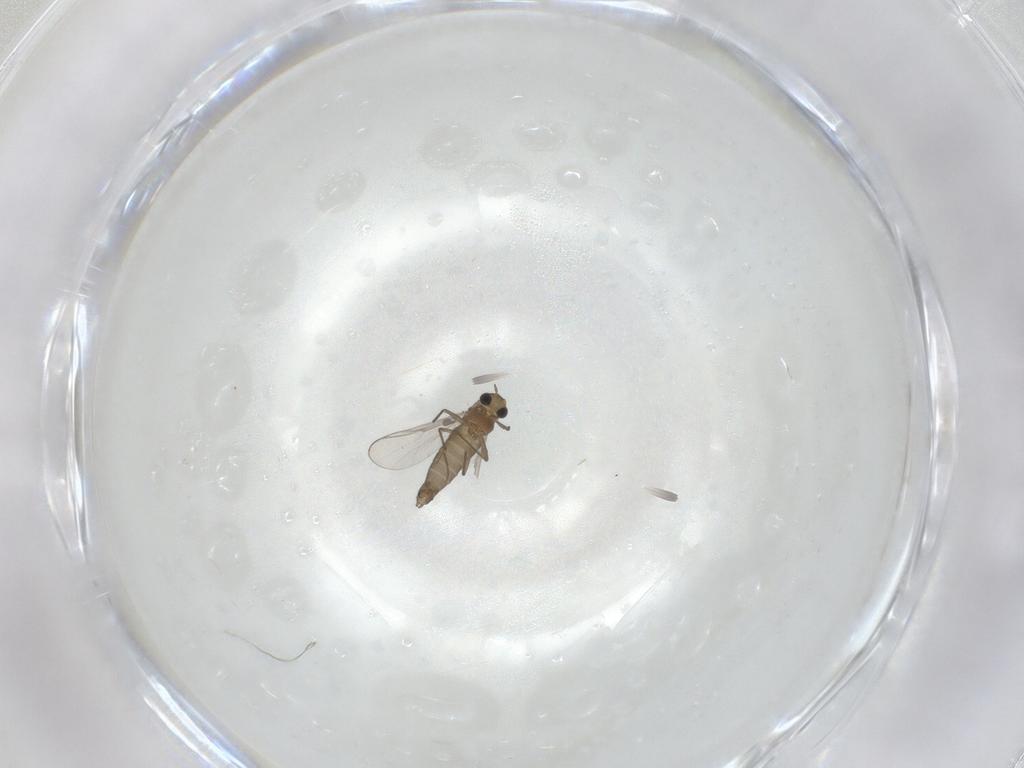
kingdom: Animalia
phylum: Arthropoda
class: Insecta
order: Diptera
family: Chironomidae
